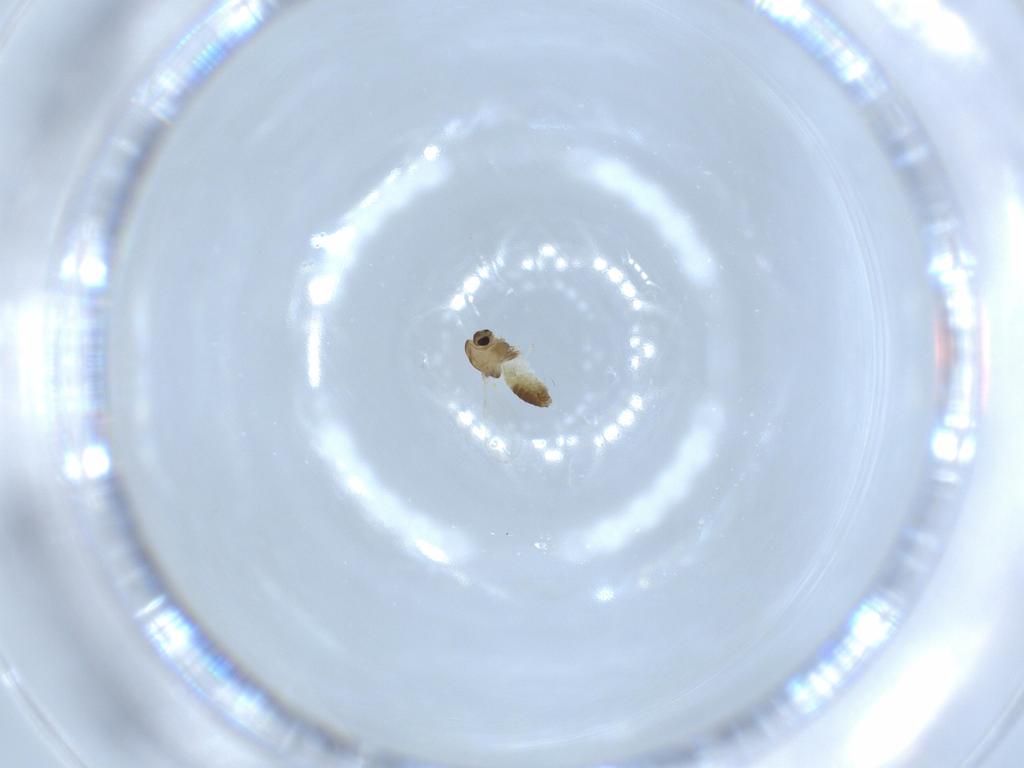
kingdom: Animalia
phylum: Arthropoda
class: Insecta
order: Diptera
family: Chironomidae
